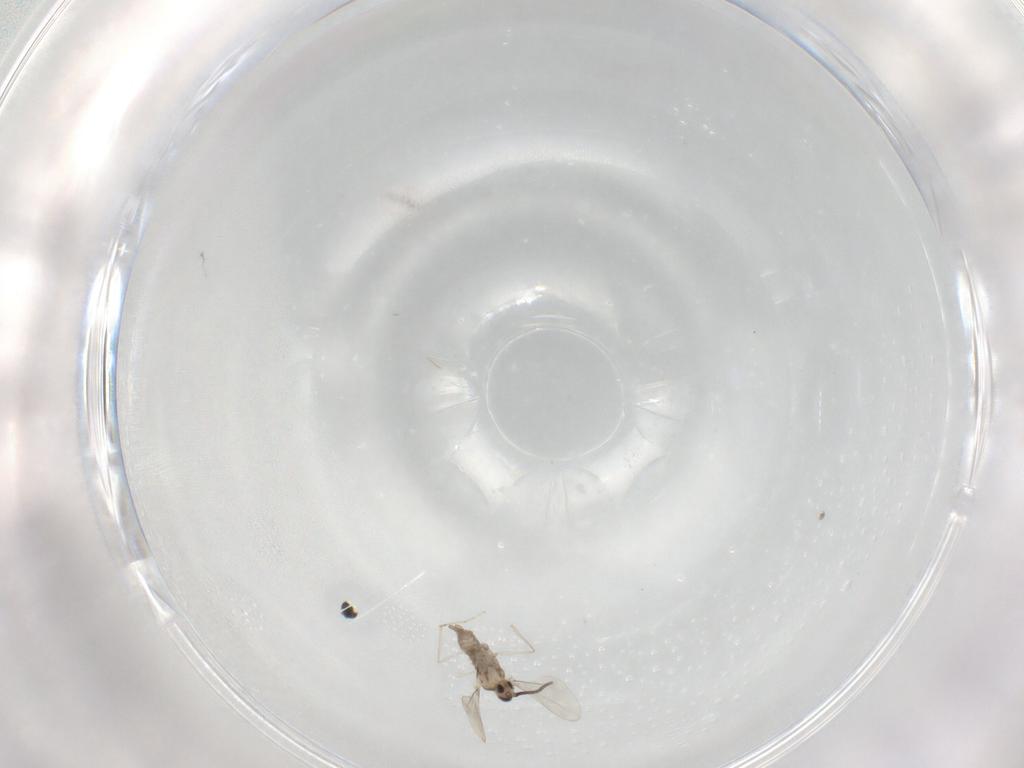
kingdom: Animalia
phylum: Arthropoda
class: Insecta
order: Diptera
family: Cecidomyiidae
